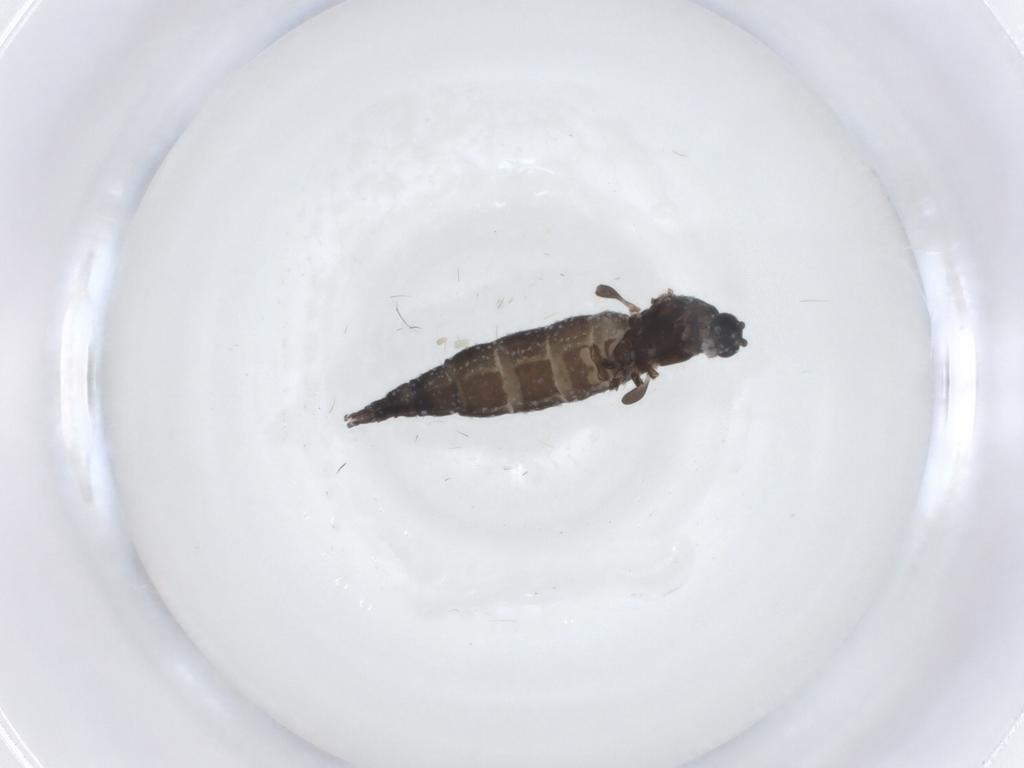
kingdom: Animalia
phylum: Arthropoda
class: Insecta
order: Diptera
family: Sciaridae
